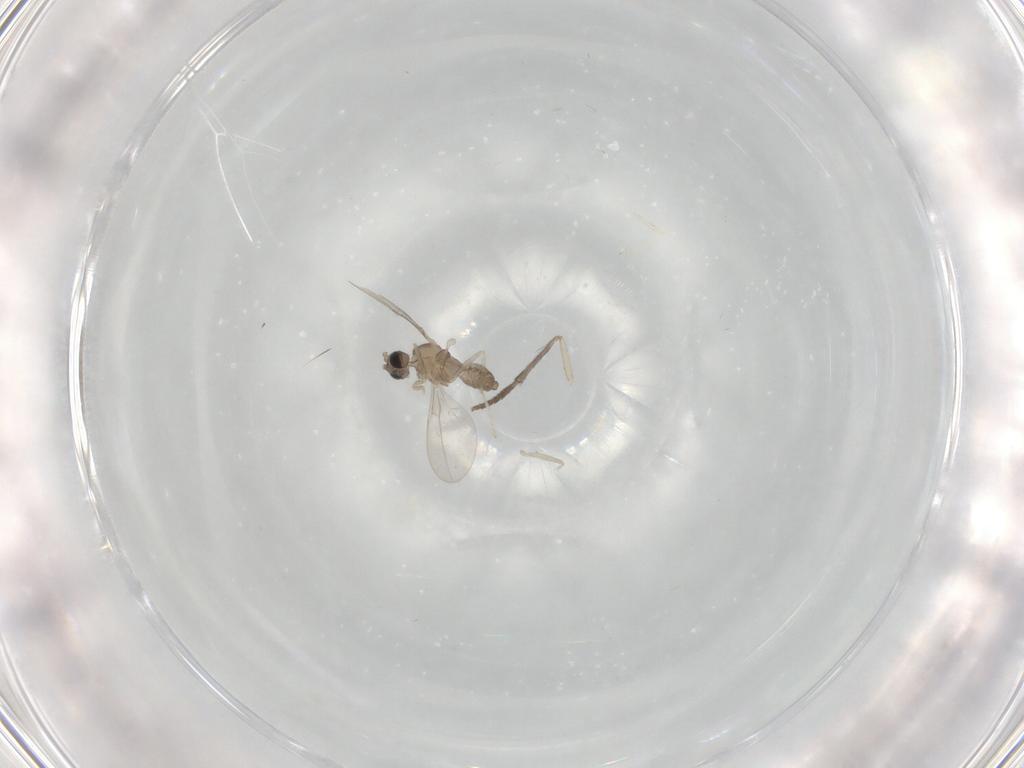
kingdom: Animalia
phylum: Arthropoda
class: Insecta
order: Diptera
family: Cecidomyiidae
